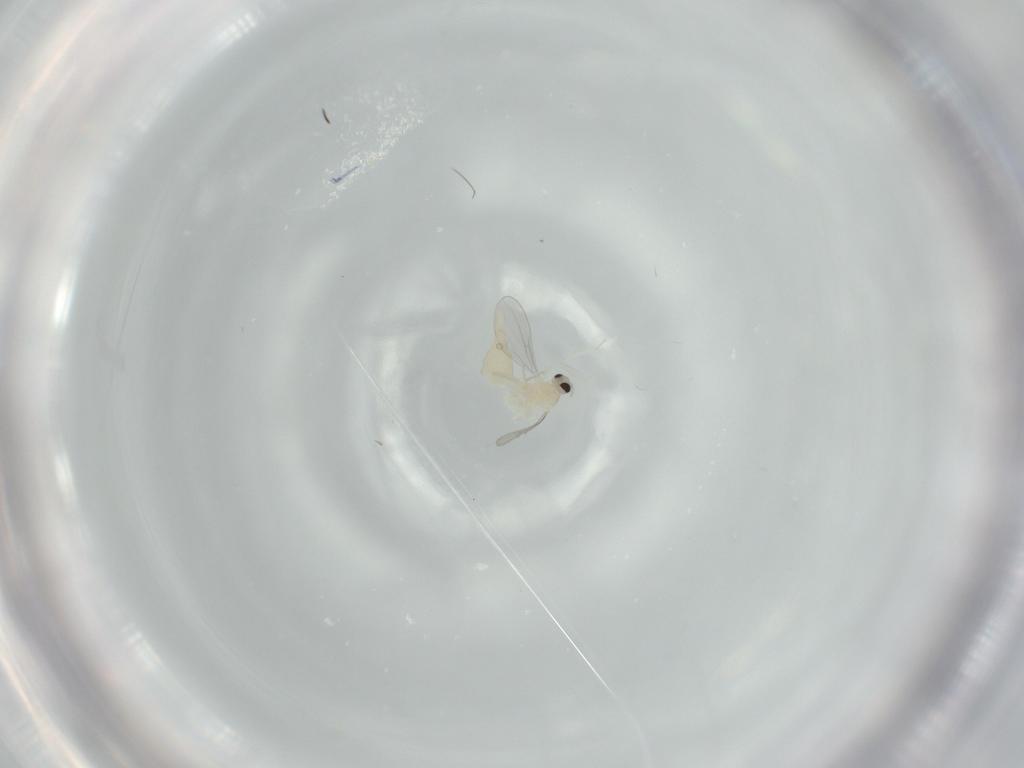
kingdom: Animalia
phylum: Arthropoda
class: Insecta
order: Diptera
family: Cecidomyiidae
